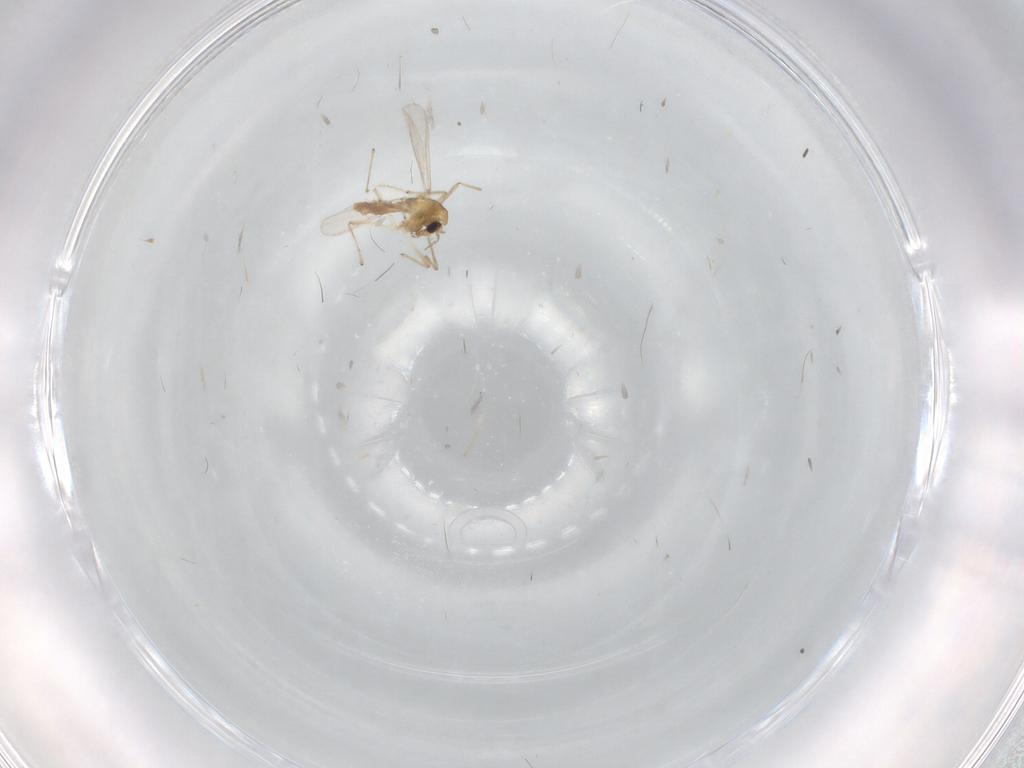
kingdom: Animalia
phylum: Arthropoda
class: Insecta
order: Diptera
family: Chironomidae
